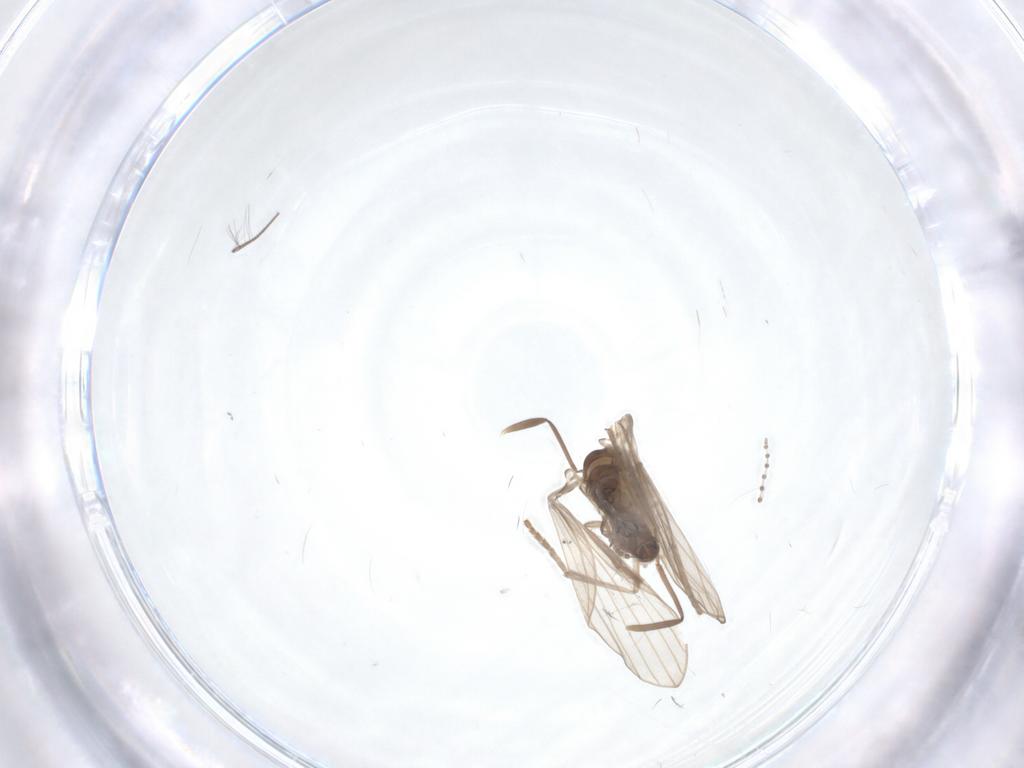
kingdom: Animalia
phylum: Arthropoda
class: Insecta
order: Diptera
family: Psychodidae
